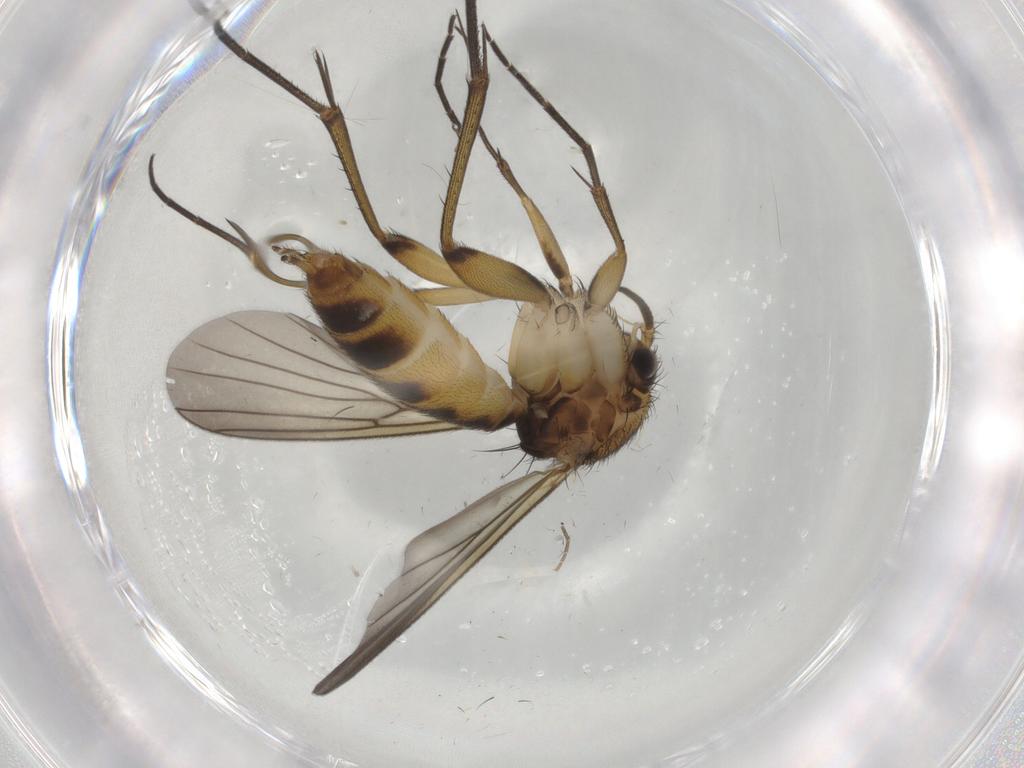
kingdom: Animalia
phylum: Arthropoda
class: Insecta
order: Diptera
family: Mycetophilidae
